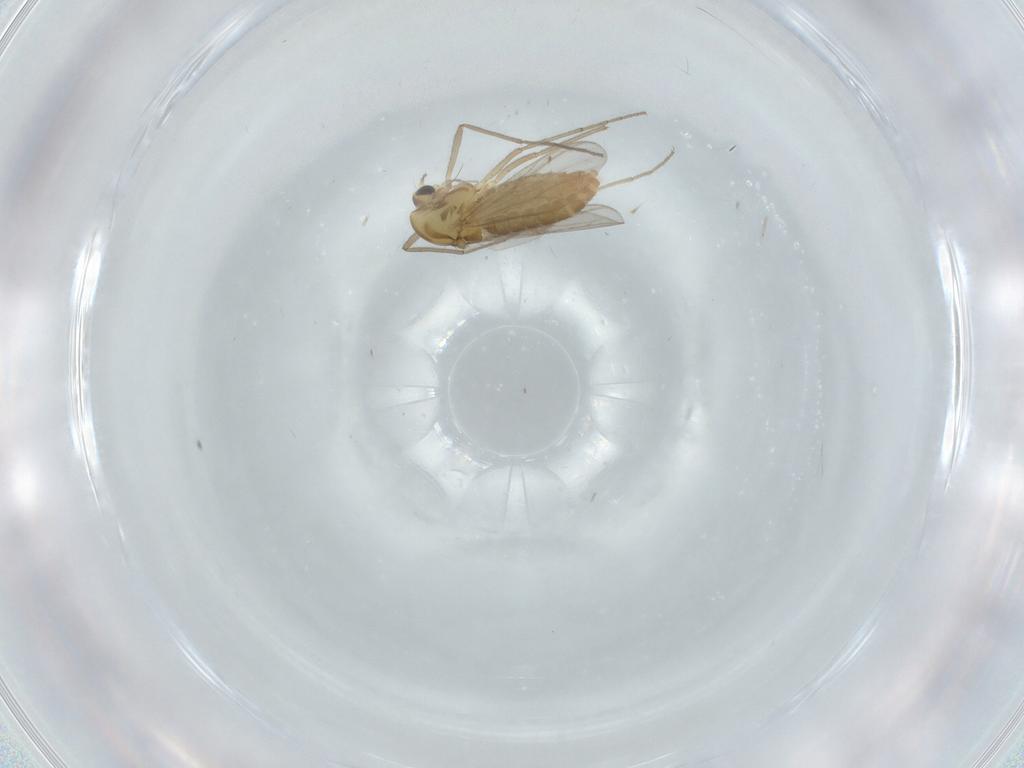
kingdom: Animalia
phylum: Arthropoda
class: Insecta
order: Diptera
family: Chironomidae
